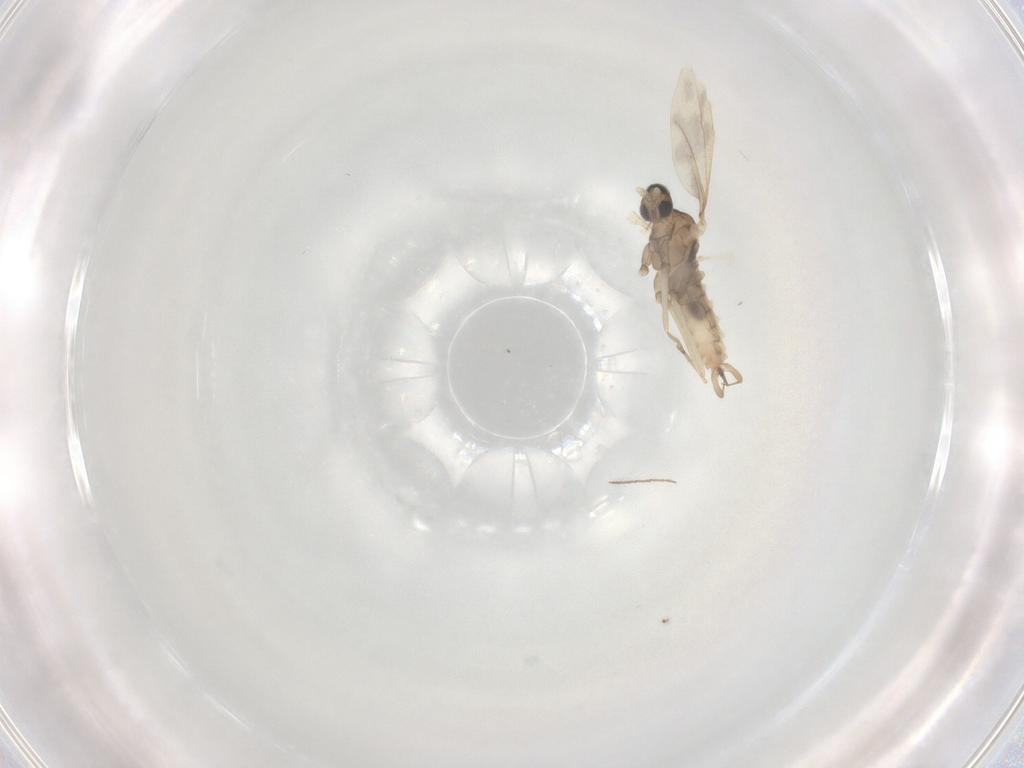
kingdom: Animalia
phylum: Arthropoda
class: Insecta
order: Diptera
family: Cecidomyiidae
